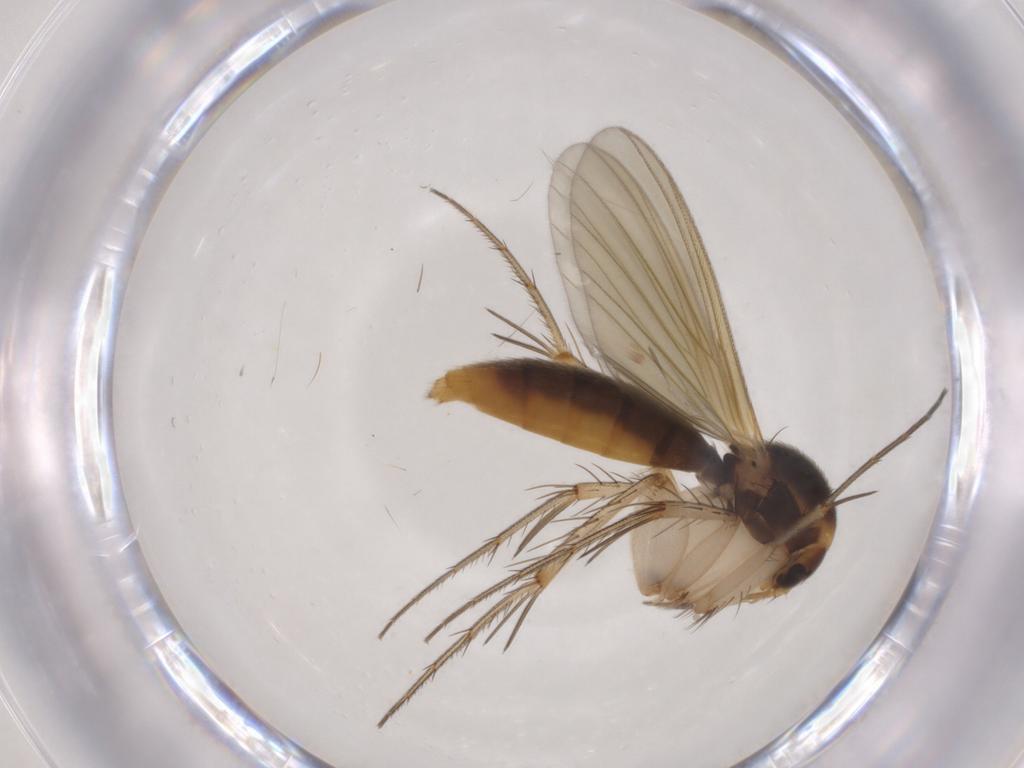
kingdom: Animalia
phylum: Arthropoda
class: Insecta
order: Diptera
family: Mycetophilidae
